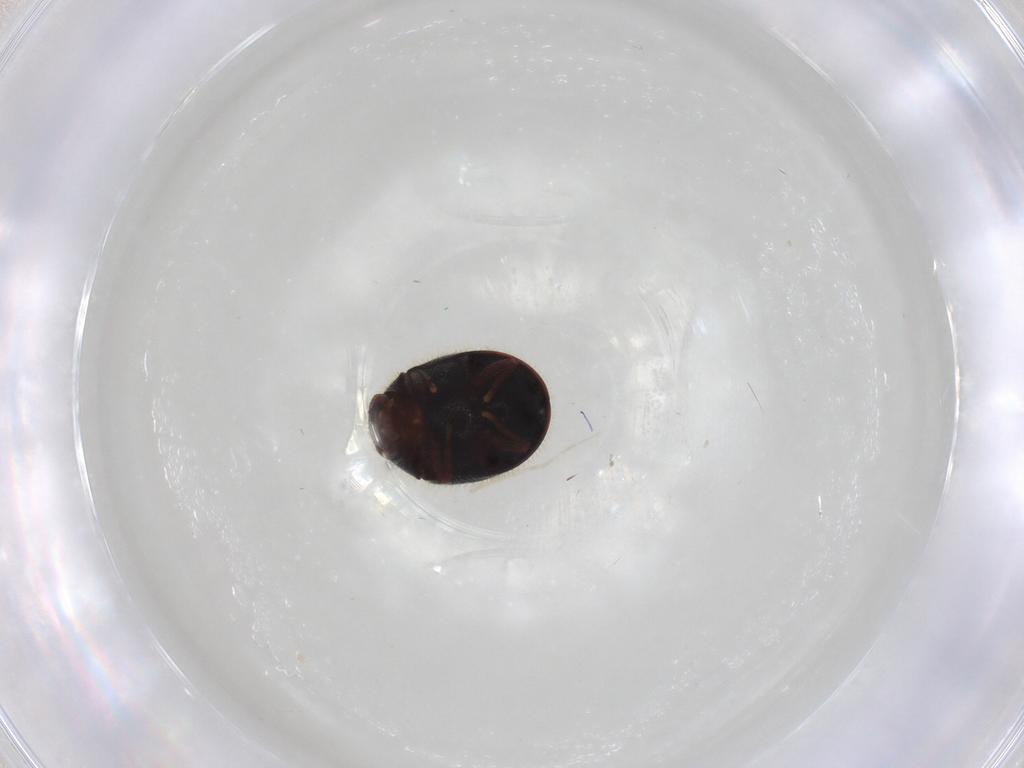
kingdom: Animalia
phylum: Arthropoda
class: Insecta
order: Coleoptera
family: Ptinidae
